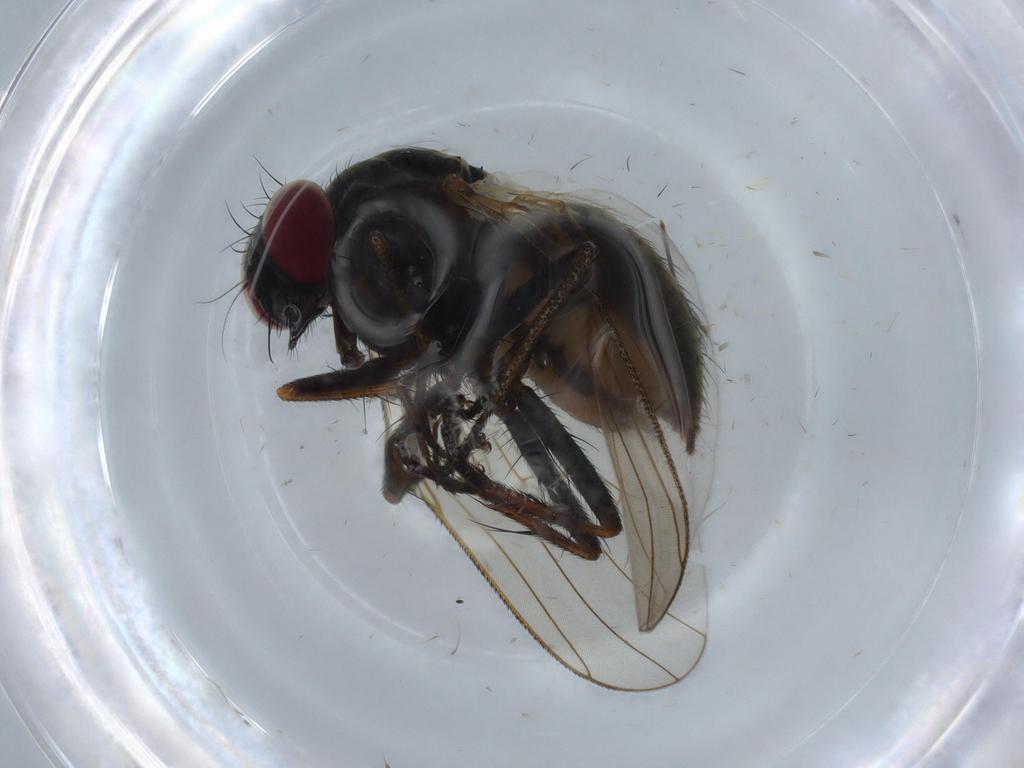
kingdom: Animalia
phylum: Arthropoda
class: Insecta
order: Diptera
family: Muscidae
